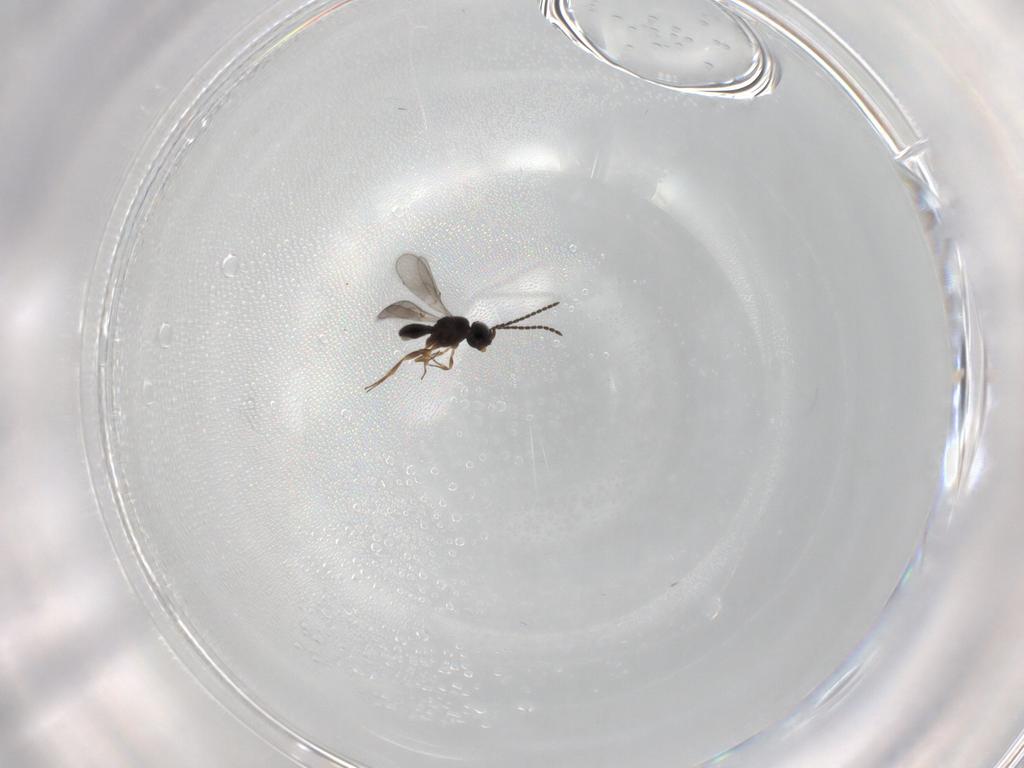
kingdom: Animalia
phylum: Arthropoda
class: Insecta
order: Hymenoptera
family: Scelionidae
